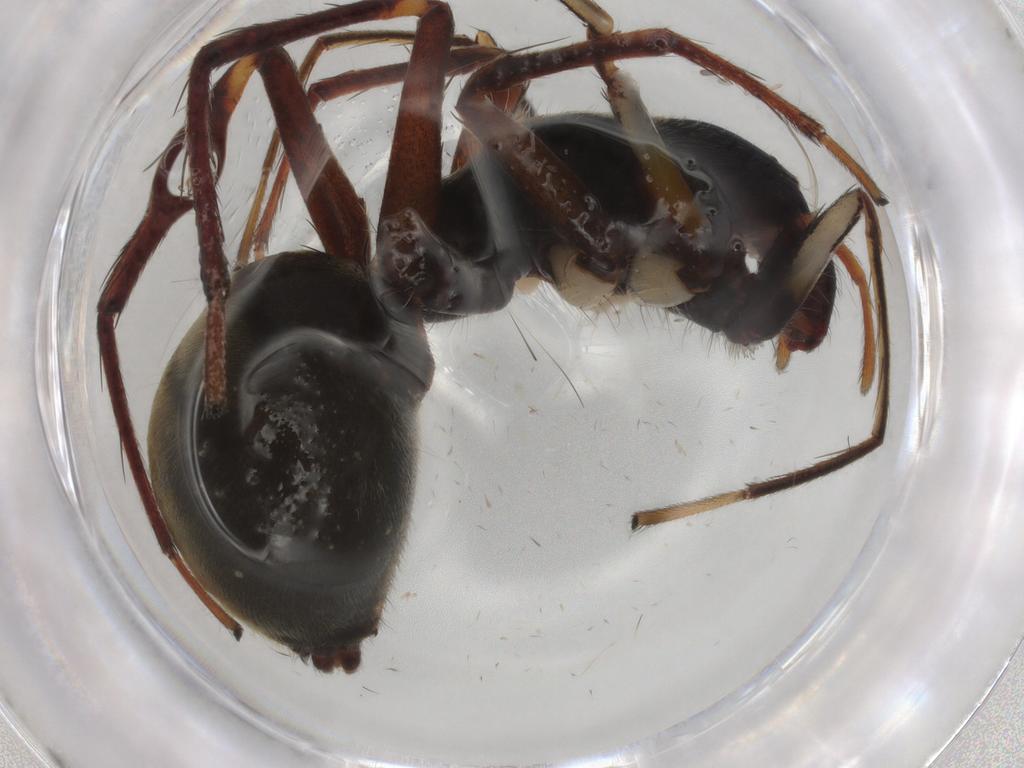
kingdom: Animalia
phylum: Arthropoda
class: Arachnida
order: Araneae
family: Corinnidae
